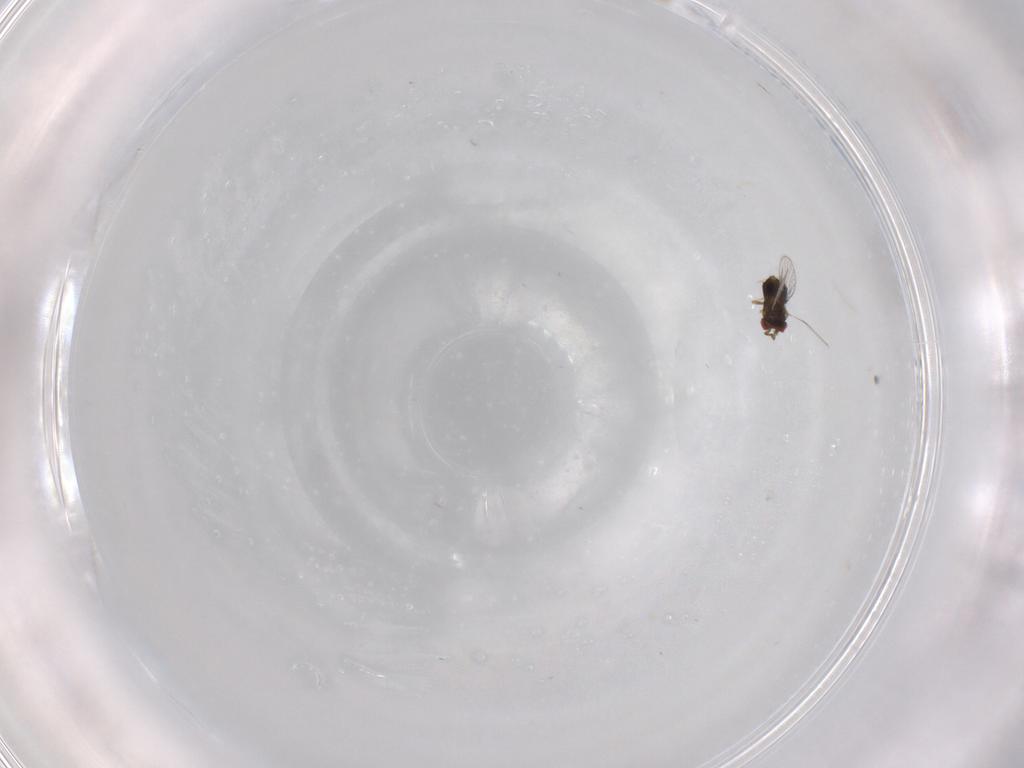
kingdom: Animalia
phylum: Arthropoda
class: Insecta
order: Hymenoptera
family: Trichogrammatidae
